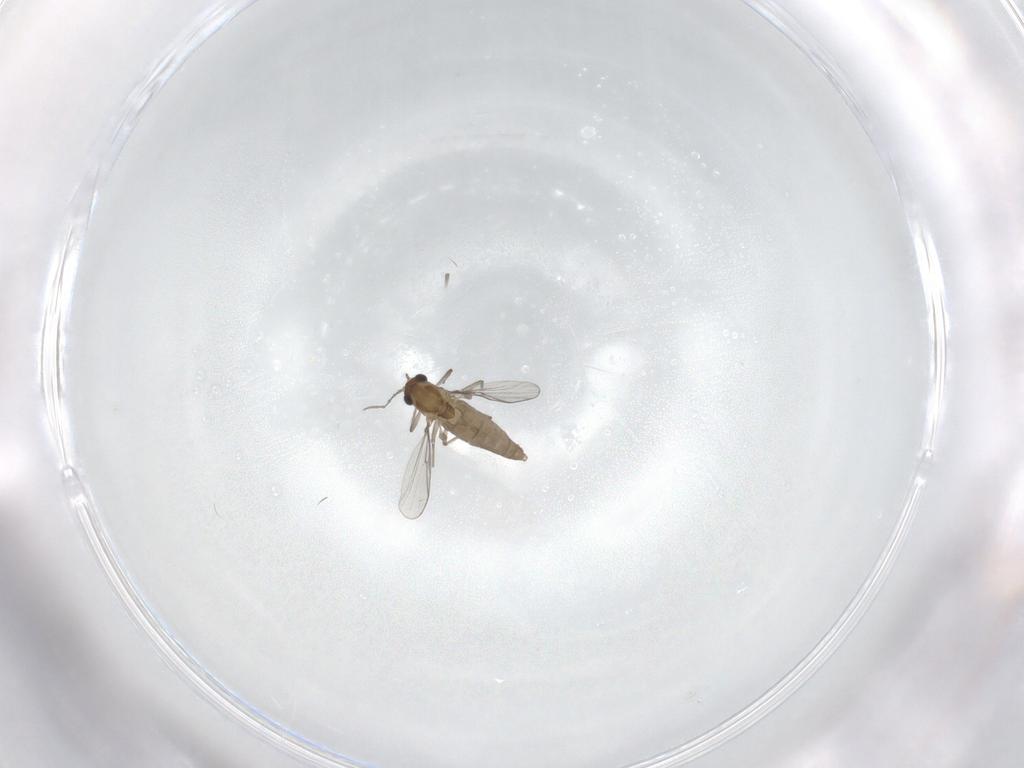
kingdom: Animalia
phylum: Arthropoda
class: Insecta
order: Diptera
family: Chironomidae
